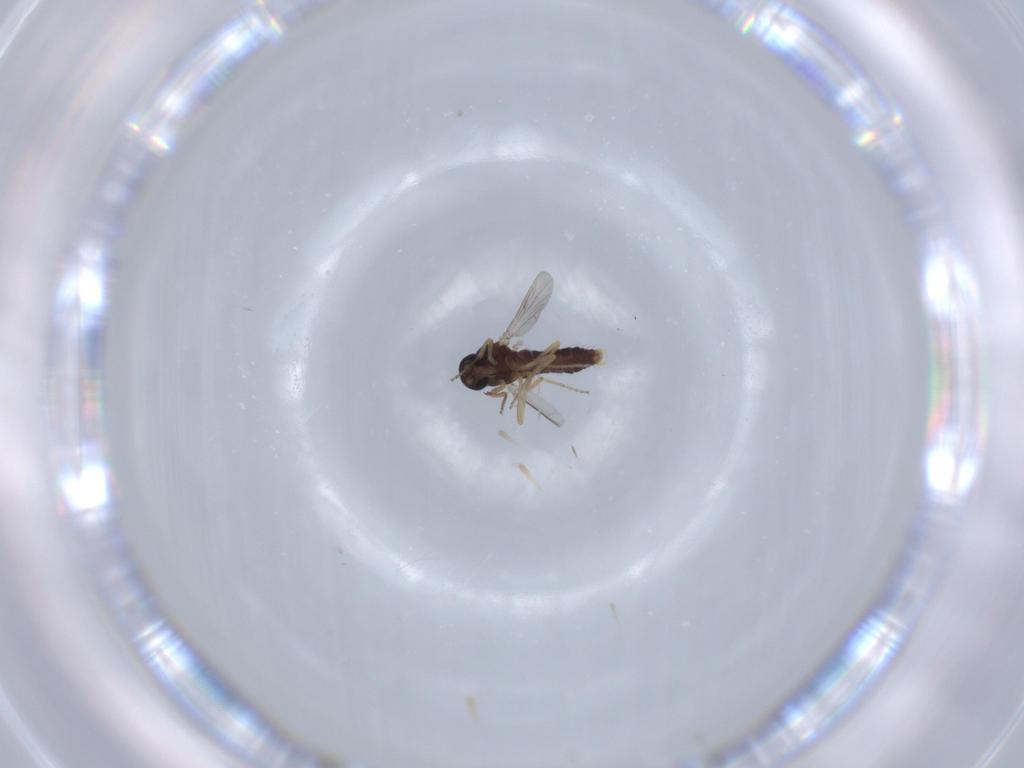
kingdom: Animalia
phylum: Arthropoda
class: Insecta
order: Diptera
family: Ceratopogonidae
